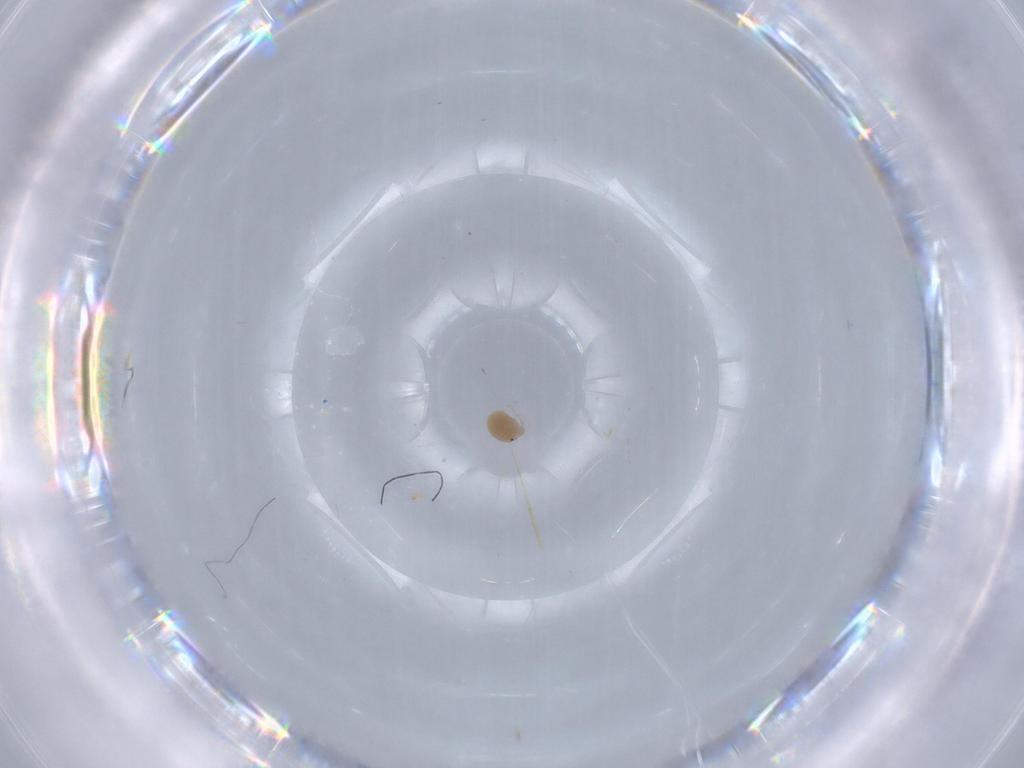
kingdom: Animalia
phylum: Arthropoda
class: Arachnida
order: Trombidiformes
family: Lebertiidae
